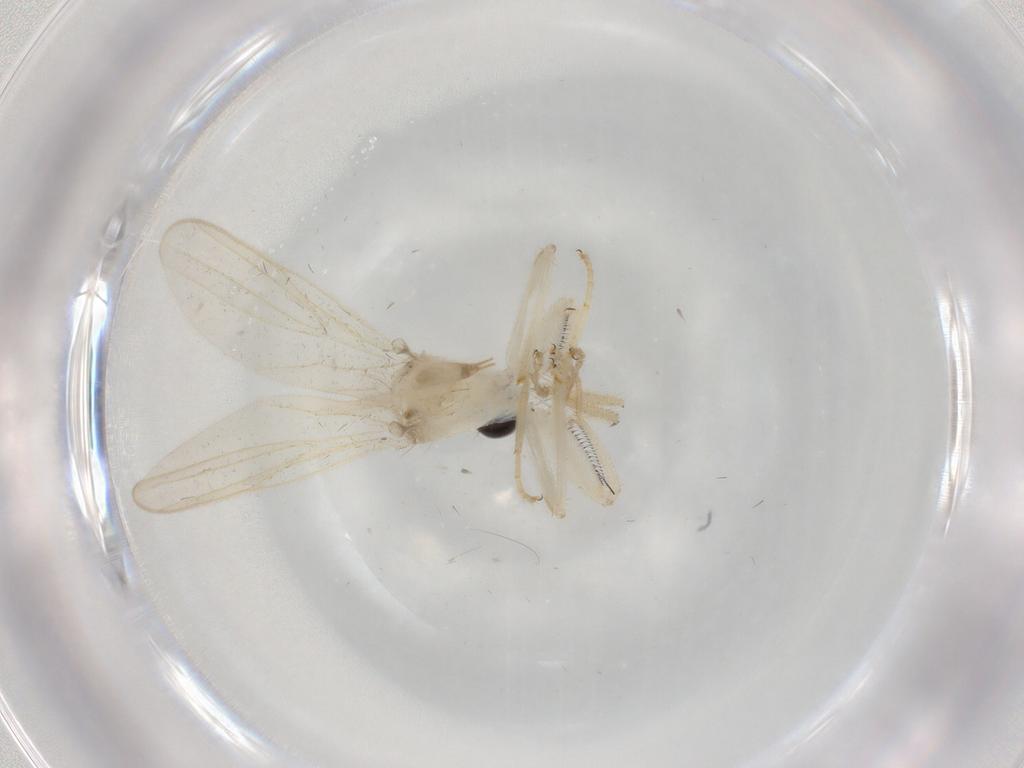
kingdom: Animalia
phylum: Arthropoda
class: Insecta
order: Diptera
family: Hybotidae
